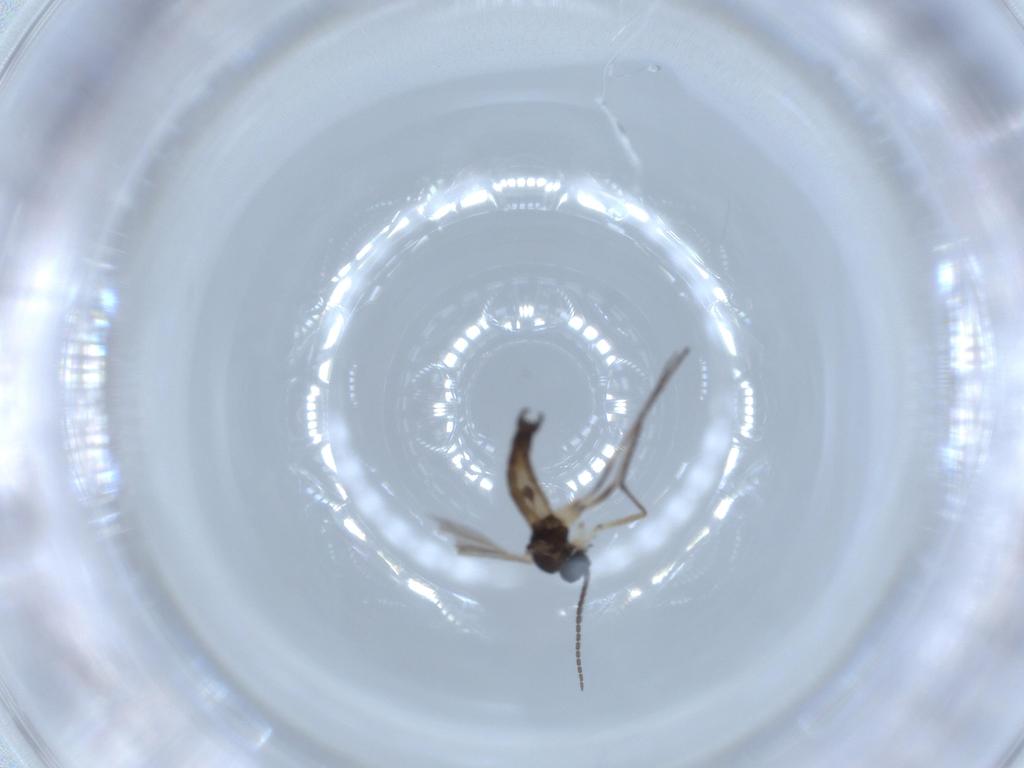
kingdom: Animalia
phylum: Arthropoda
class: Insecta
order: Diptera
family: Sciaridae
